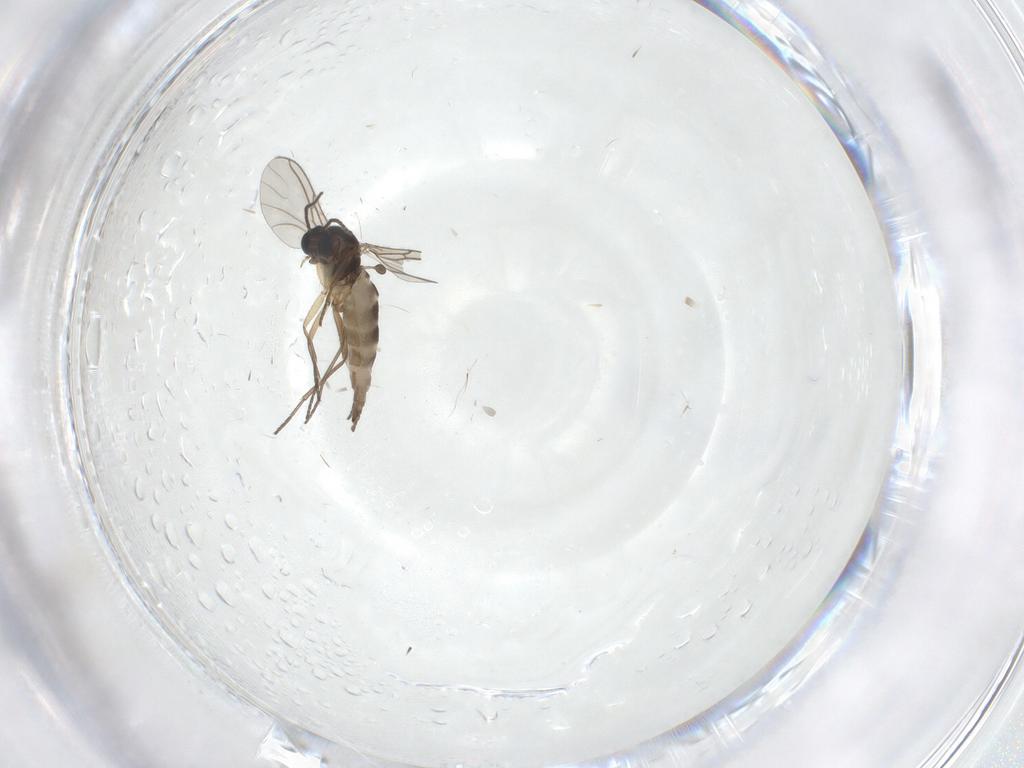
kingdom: Animalia
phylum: Arthropoda
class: Insecta
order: Diptera
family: Sciaridae
